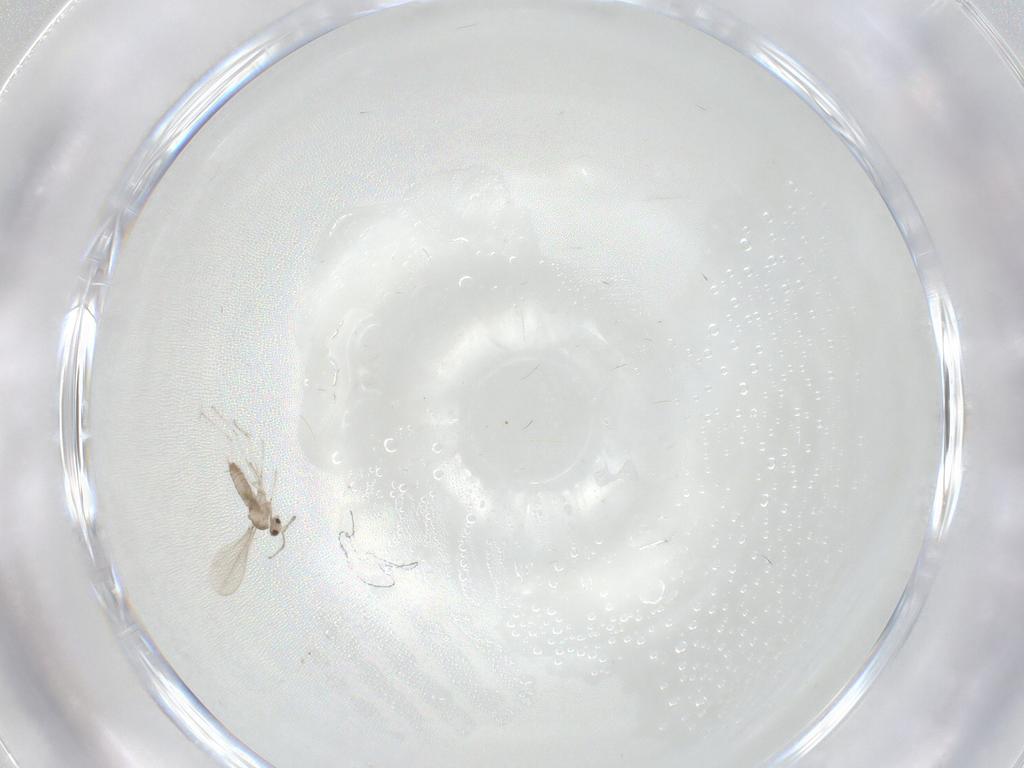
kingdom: Animalia
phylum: Arthropoda
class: Insecta
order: Diptera
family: Cecidomyiidae
